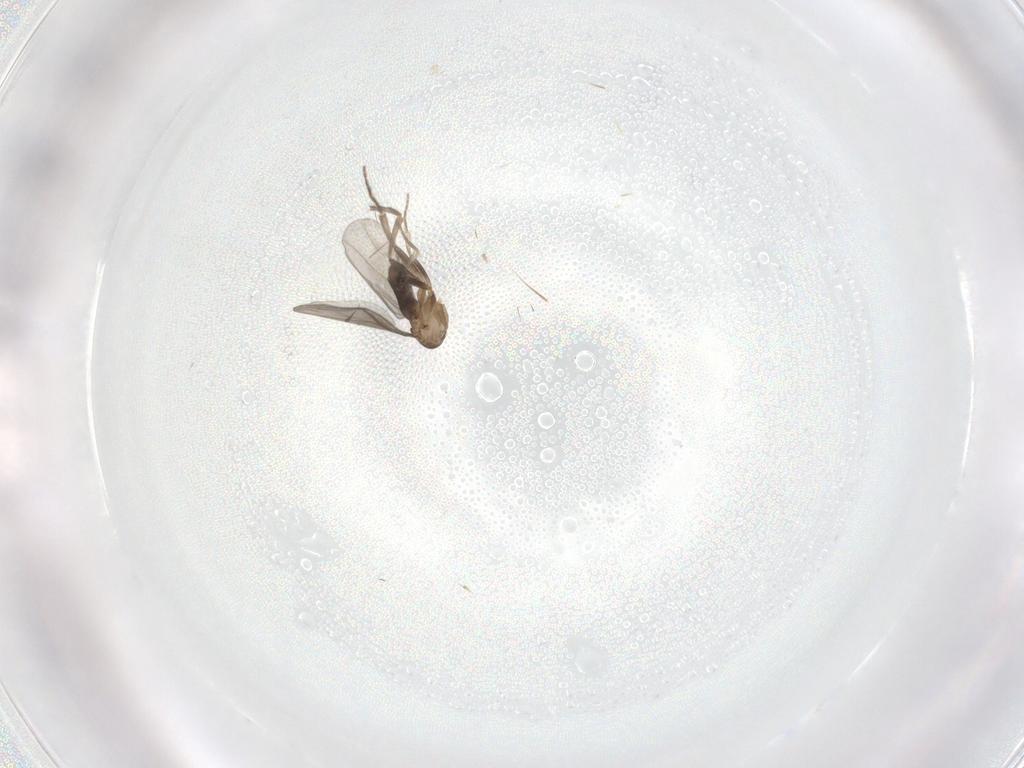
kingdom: Animalia
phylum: Arthropoda
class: Insecta
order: Diptera
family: Phoridae
